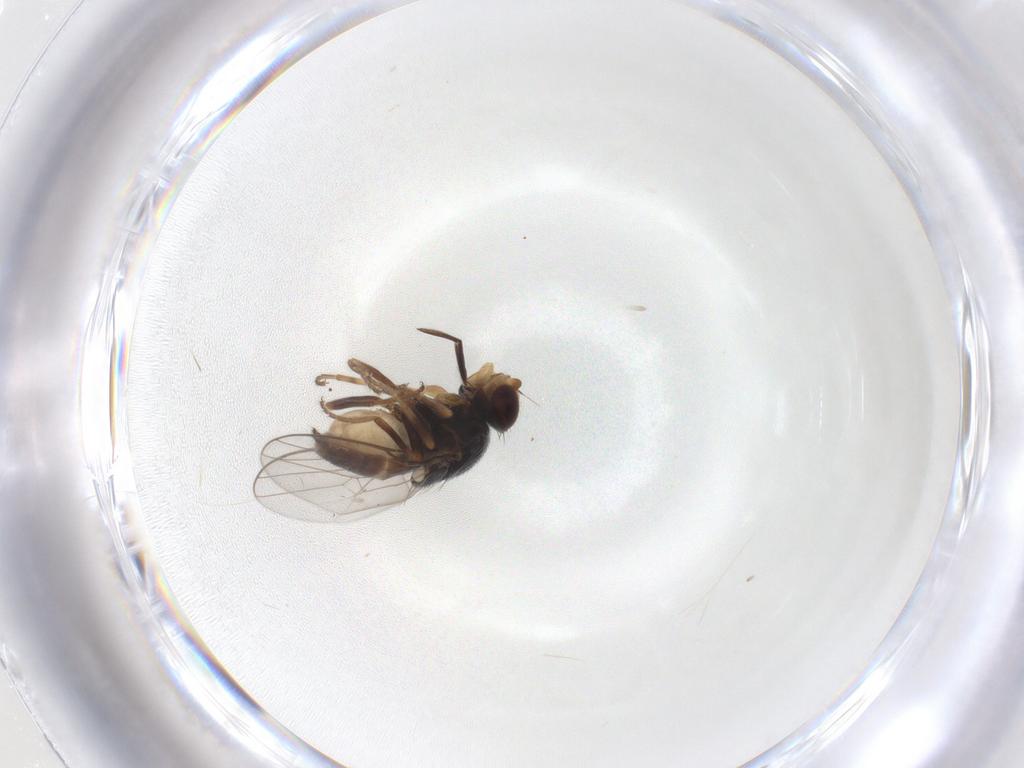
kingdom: Animalia
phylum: Arthropoda
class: Insecta
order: Diptera
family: Chloropidae
